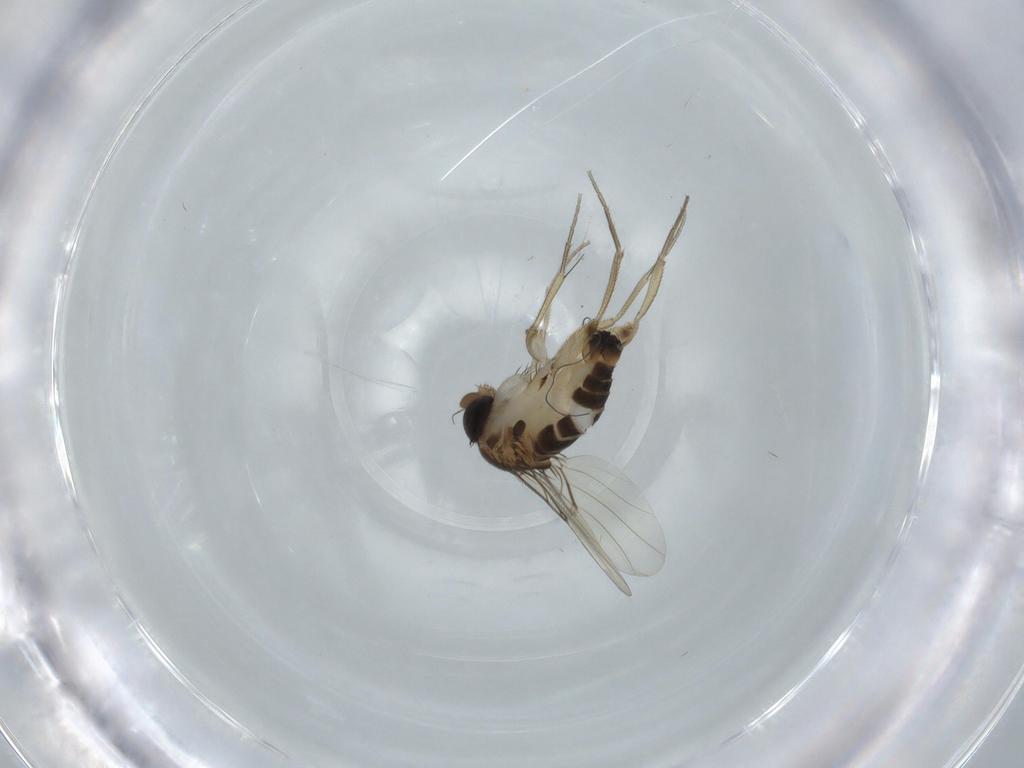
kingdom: Animalia
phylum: Arthropoda
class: Insecta
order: Diptera
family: Phoridae
